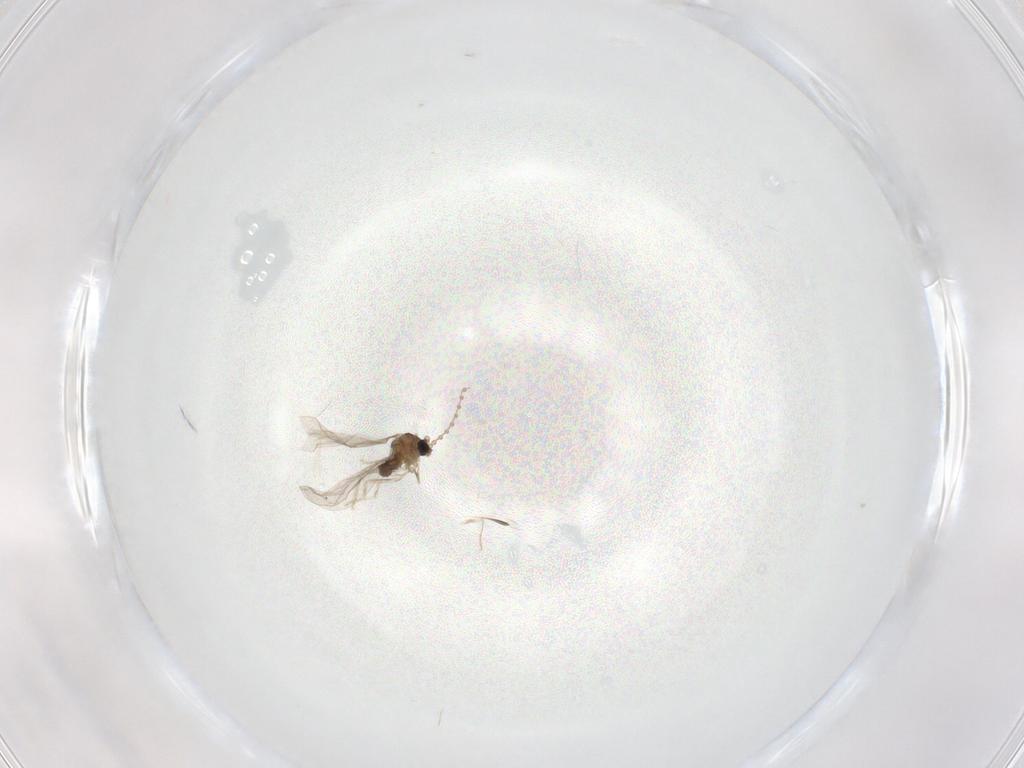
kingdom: Animalia
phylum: Arthropoda
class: Insecta
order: Diptera
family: Cecidomyiidae
